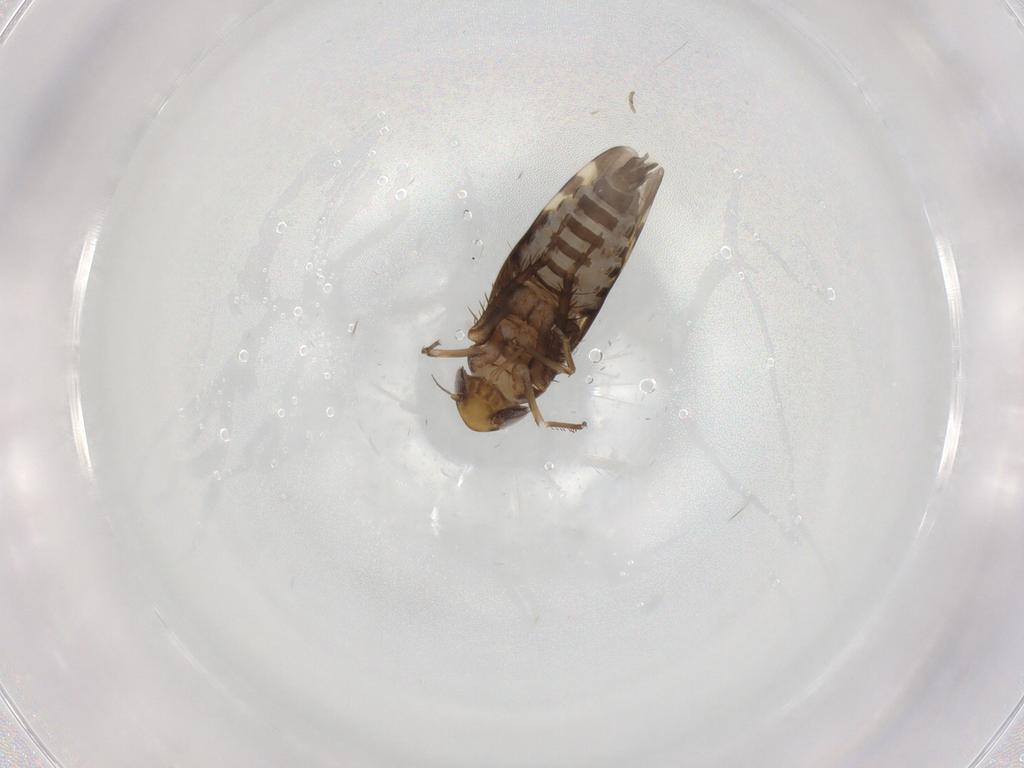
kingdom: Animalia
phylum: Arthropoda
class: Insecta
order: Hemiptera
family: Cicadellidae
